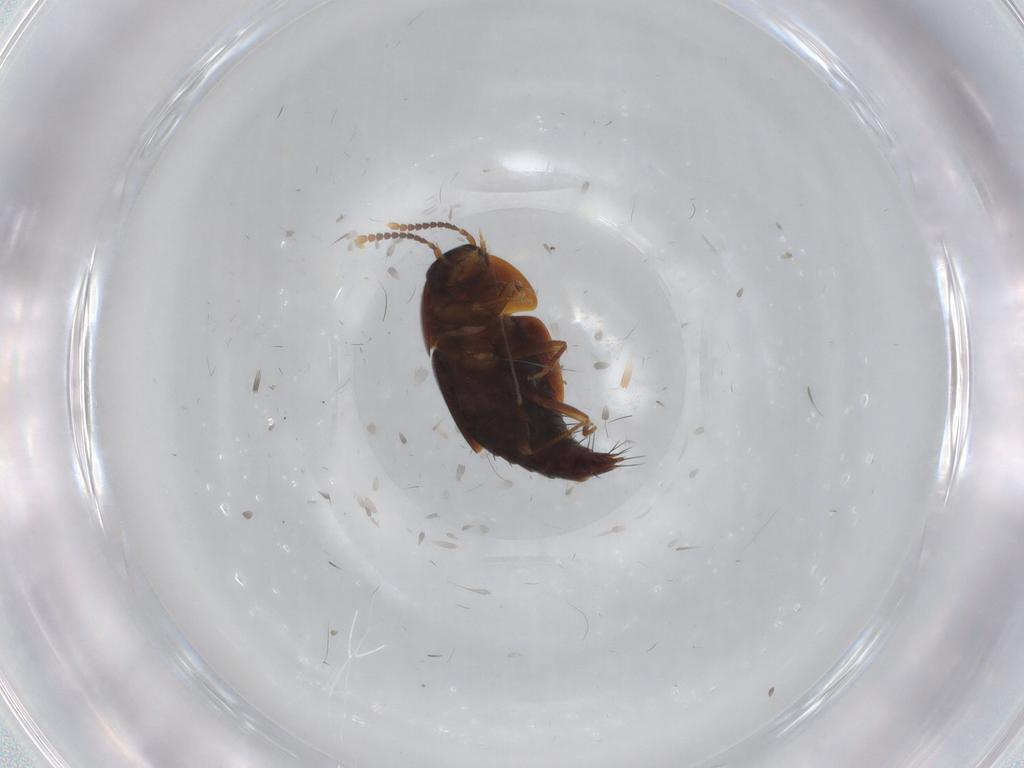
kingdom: Animalia
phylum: Arthropoda
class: Insecta
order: Coleoptera
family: Staphylinidae
